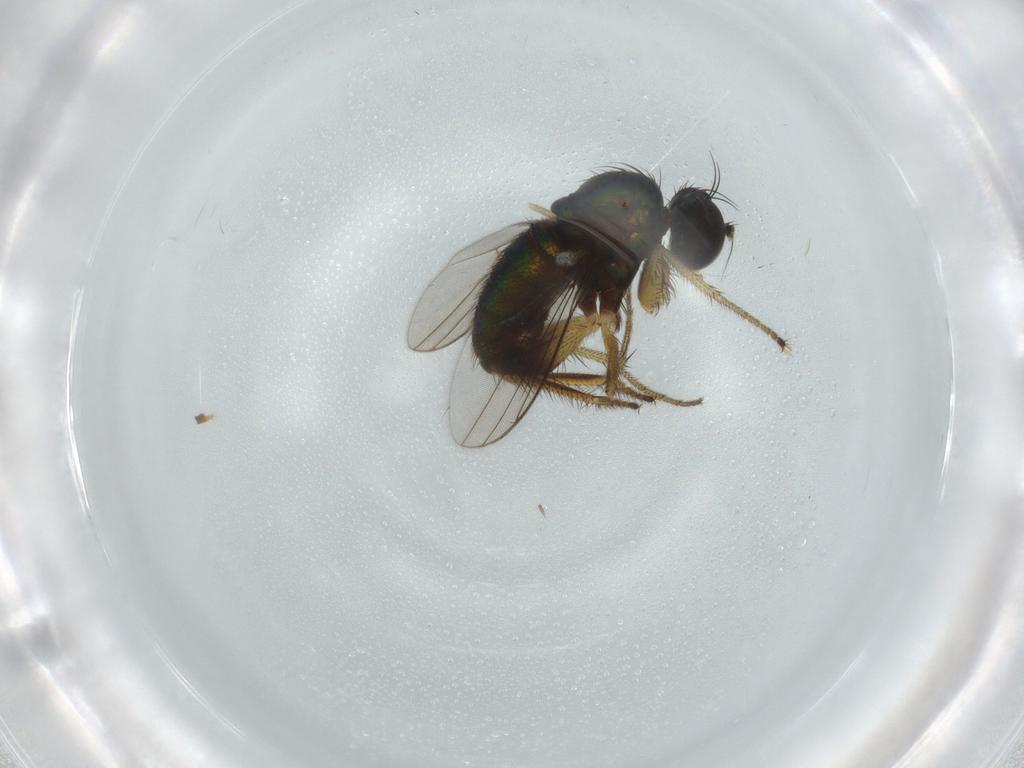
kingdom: Animalia
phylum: Arthropoda
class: Insecta
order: Diptera
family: Dolichopodidae
